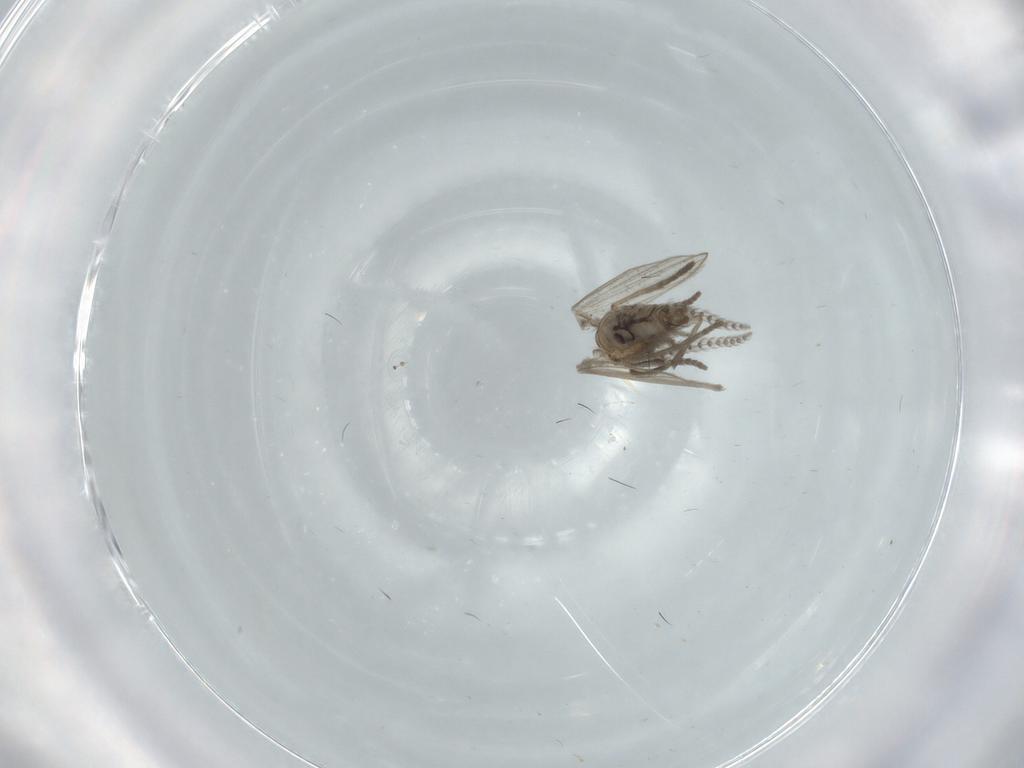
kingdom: Animalia
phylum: Arthropoda
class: Insecta
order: Diptera
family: Psychodidae
